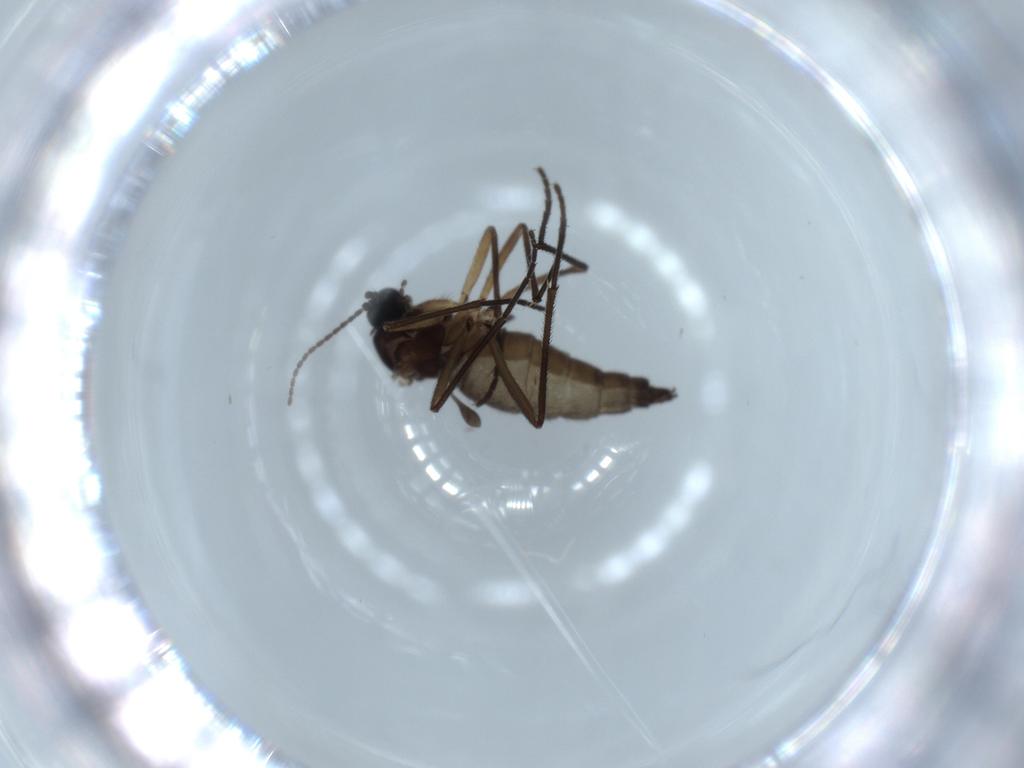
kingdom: Animalia
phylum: Arthropoda
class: Insecta
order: Diptera
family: Sciaridae
